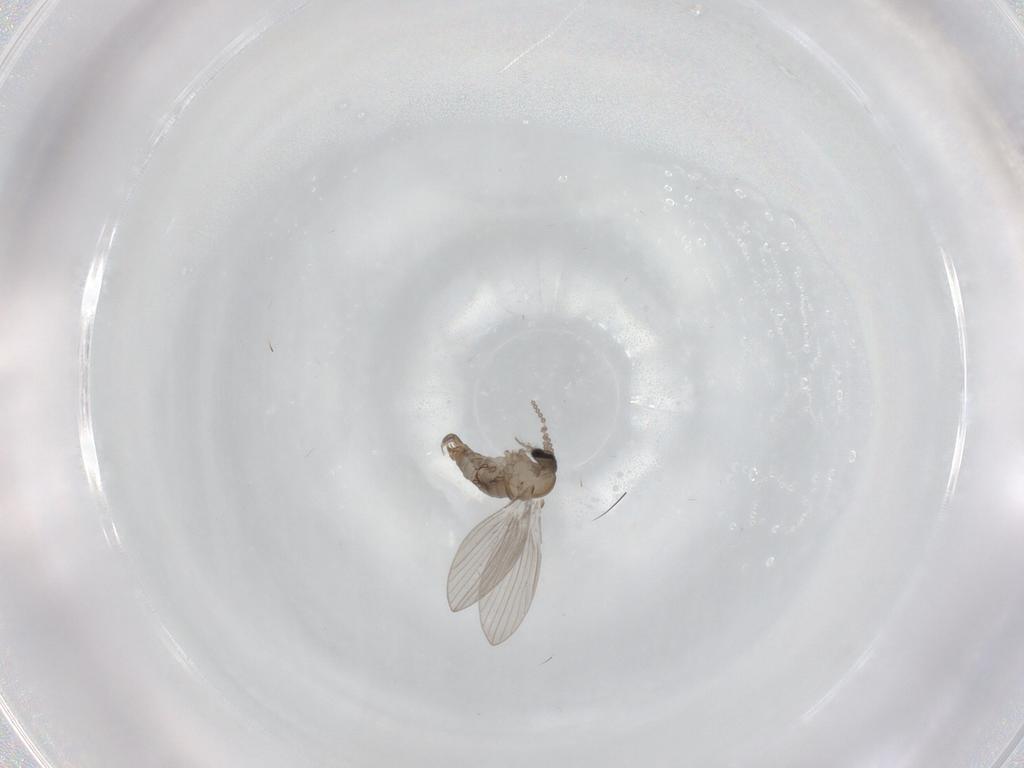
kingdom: Animalia
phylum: Arthropoda
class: Insecta
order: Diptera
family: Psychodidae
